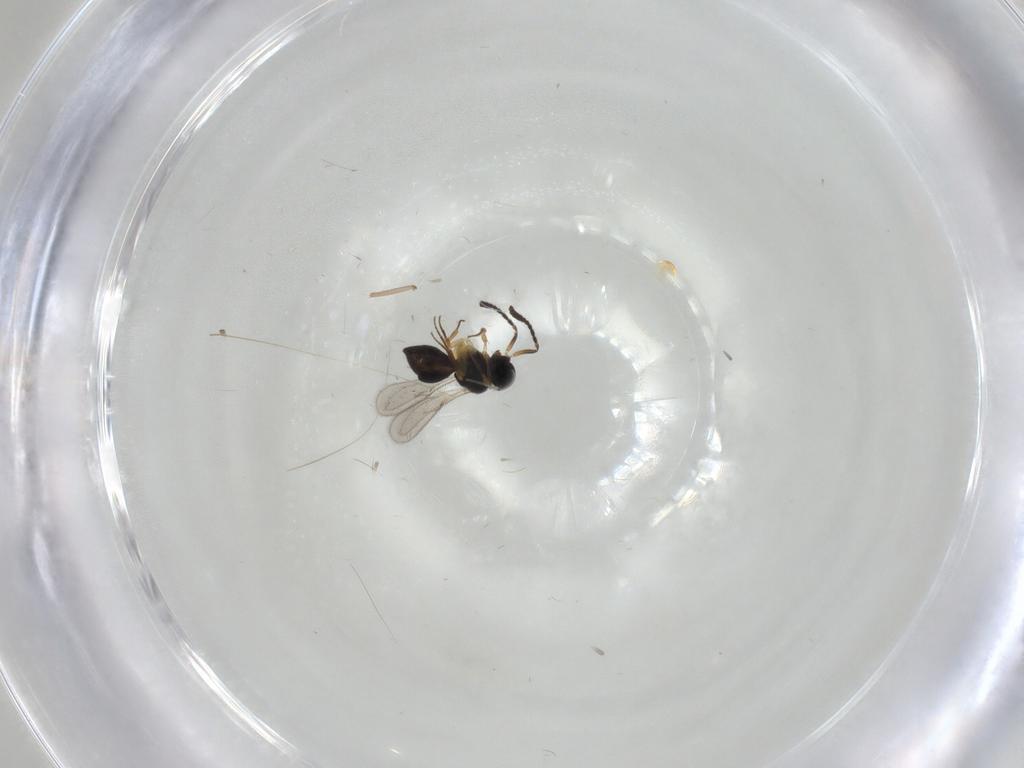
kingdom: Animalia
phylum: Arthropoda
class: Insecta
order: Hymenoptera
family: Scelionidae
